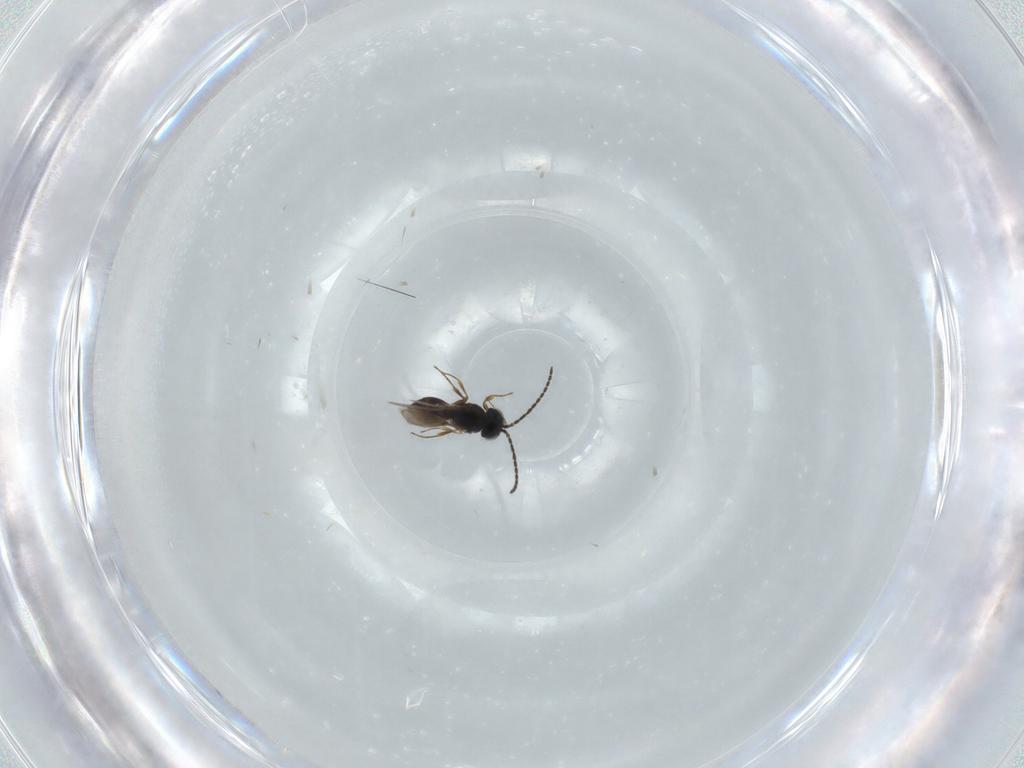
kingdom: Animalia
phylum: Arthropoda
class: Insecta
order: Hymenoptera
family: Scelionidae
